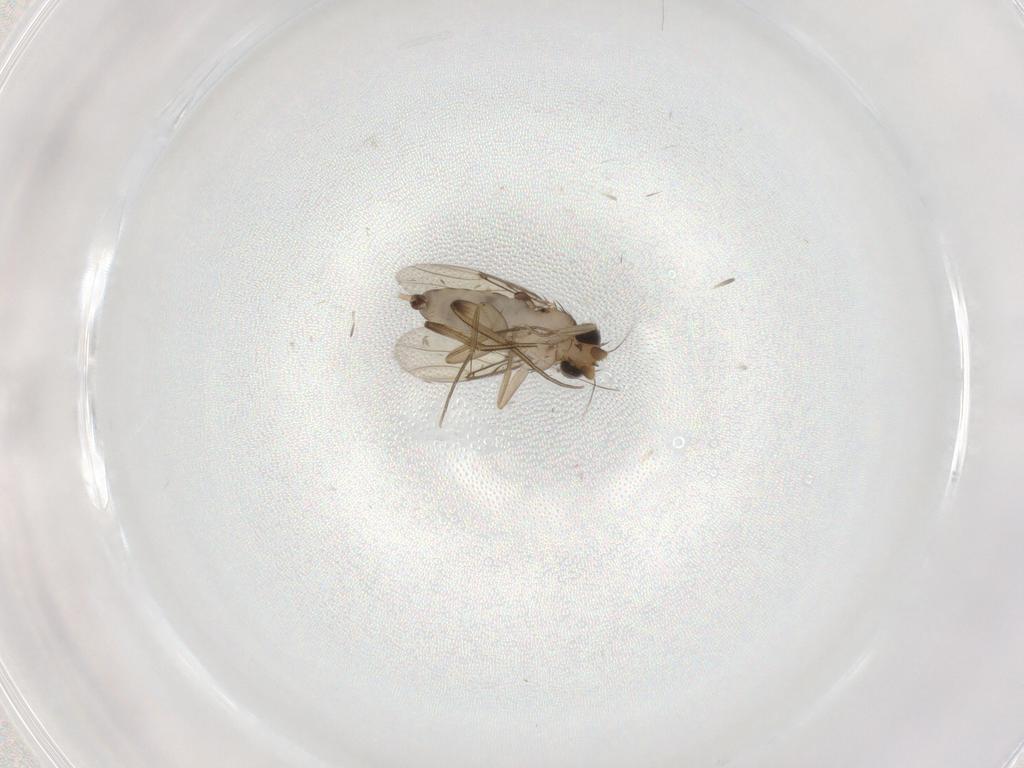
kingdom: Animalia
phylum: Arthropoda
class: Insecta
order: Diptera
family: Phoridae
